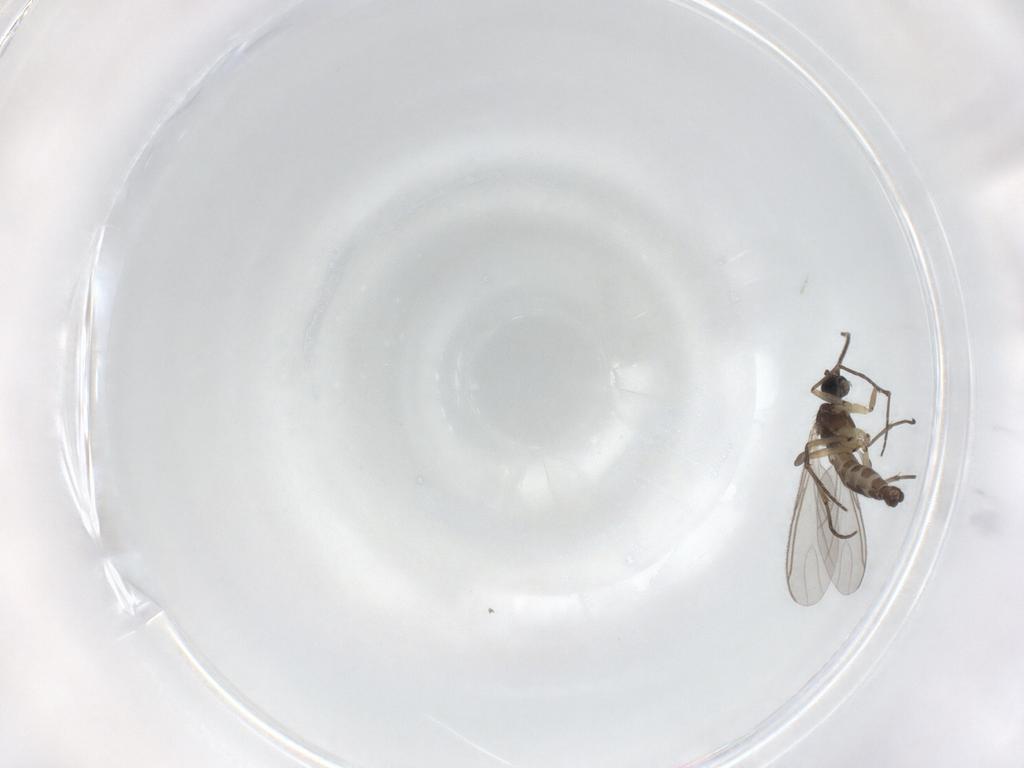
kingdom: Animalia
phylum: Arthropoda
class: Insecta
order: Diptera
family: Sciaridae
